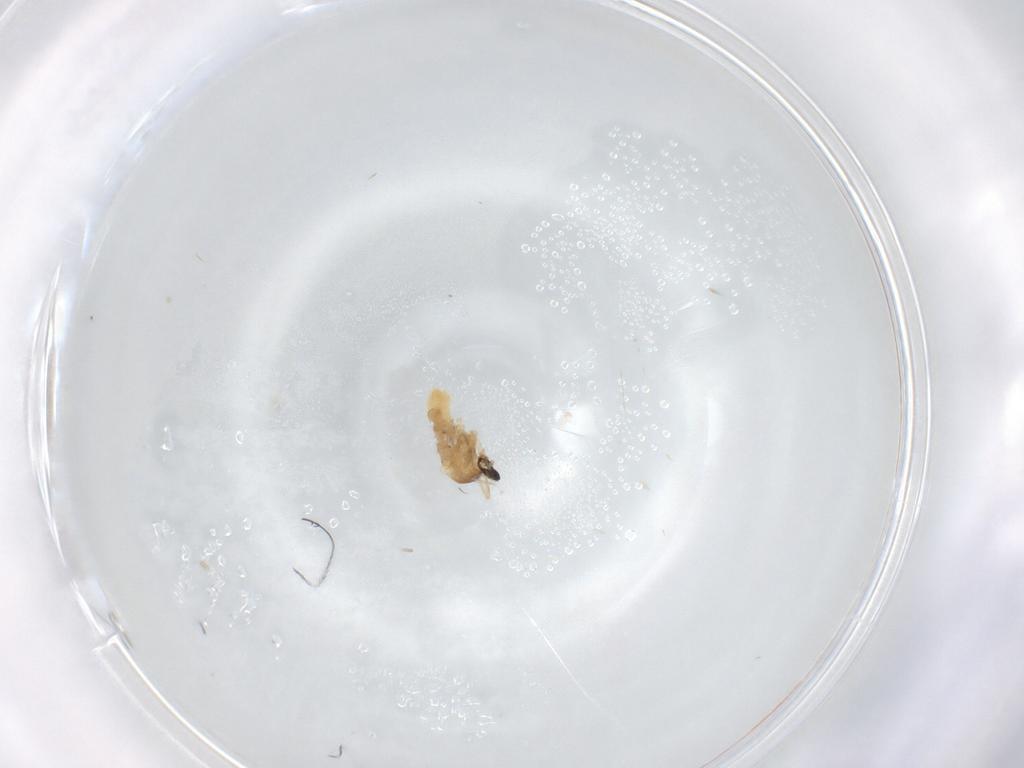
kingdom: Animalia
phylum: Arthropoda
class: Insecta
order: Diptera
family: Cecidomyiidae
